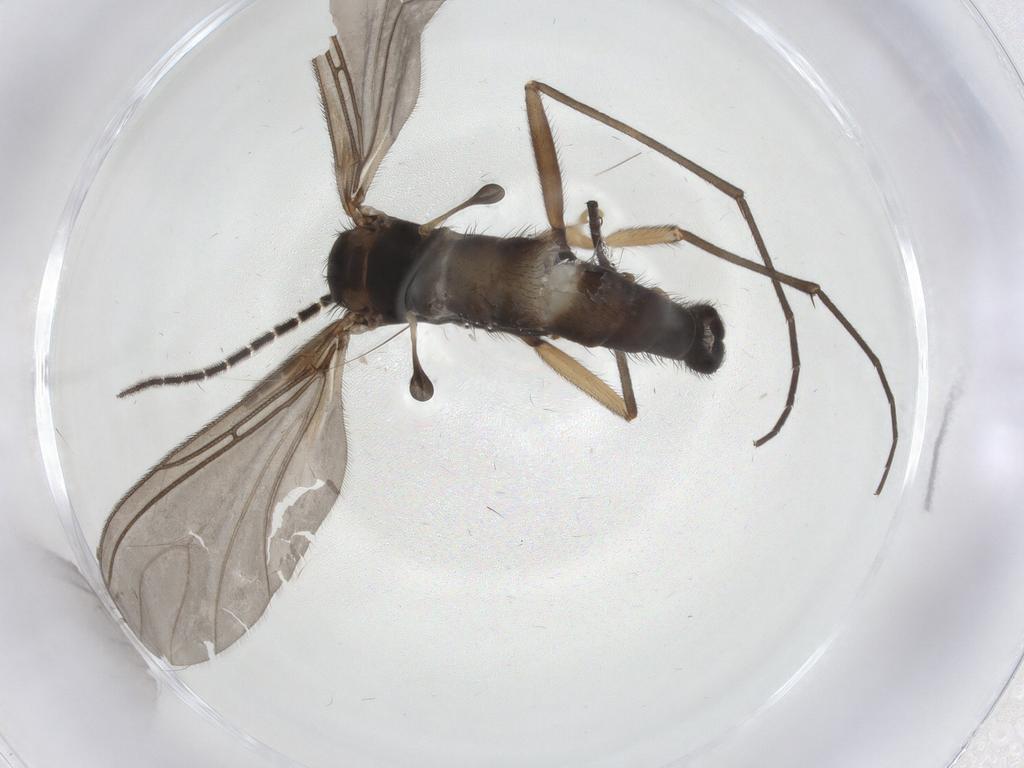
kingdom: Animalia
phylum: Arthropoda
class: Insecta
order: Diptera
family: Sciaridae
